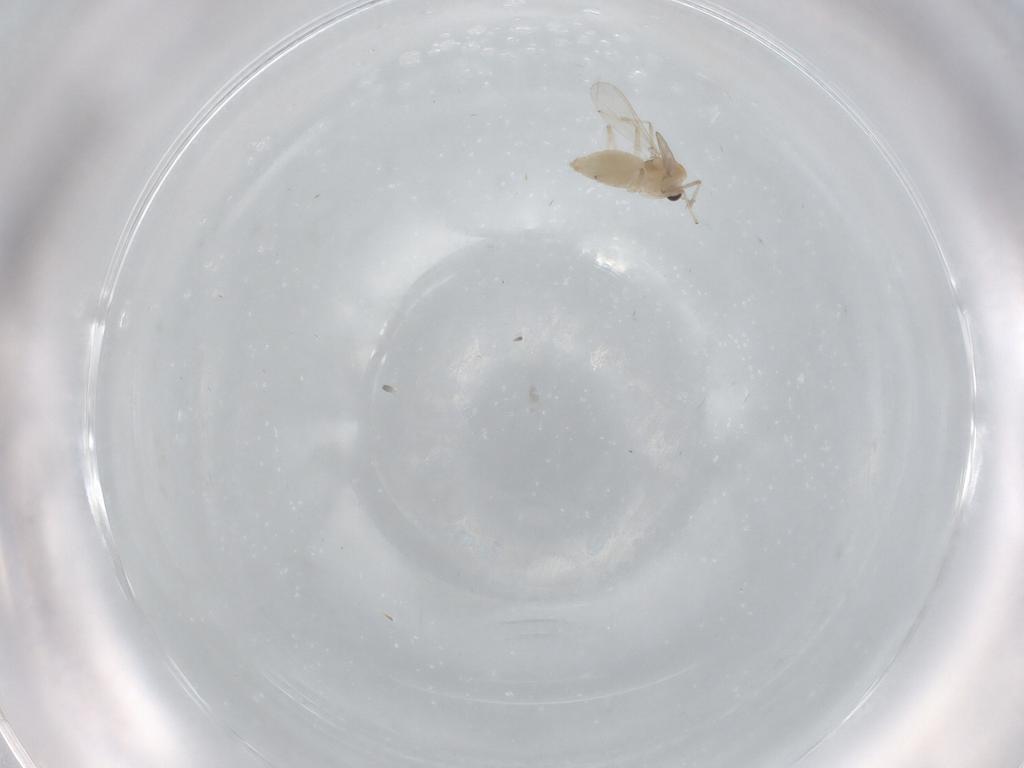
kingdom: Animalia
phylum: Arthropoda
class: Insecta
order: Diptera
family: Chironomidae
